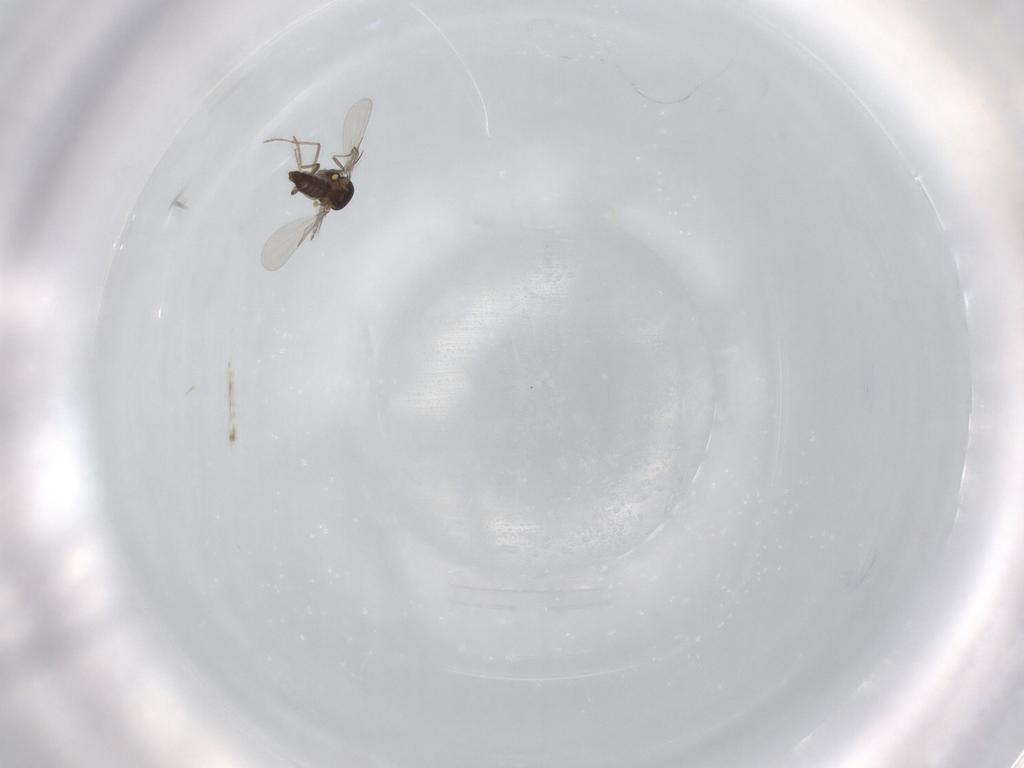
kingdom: Animalia
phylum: Arthropoda
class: Insecta
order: Diptera
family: Ceratopogonidae
